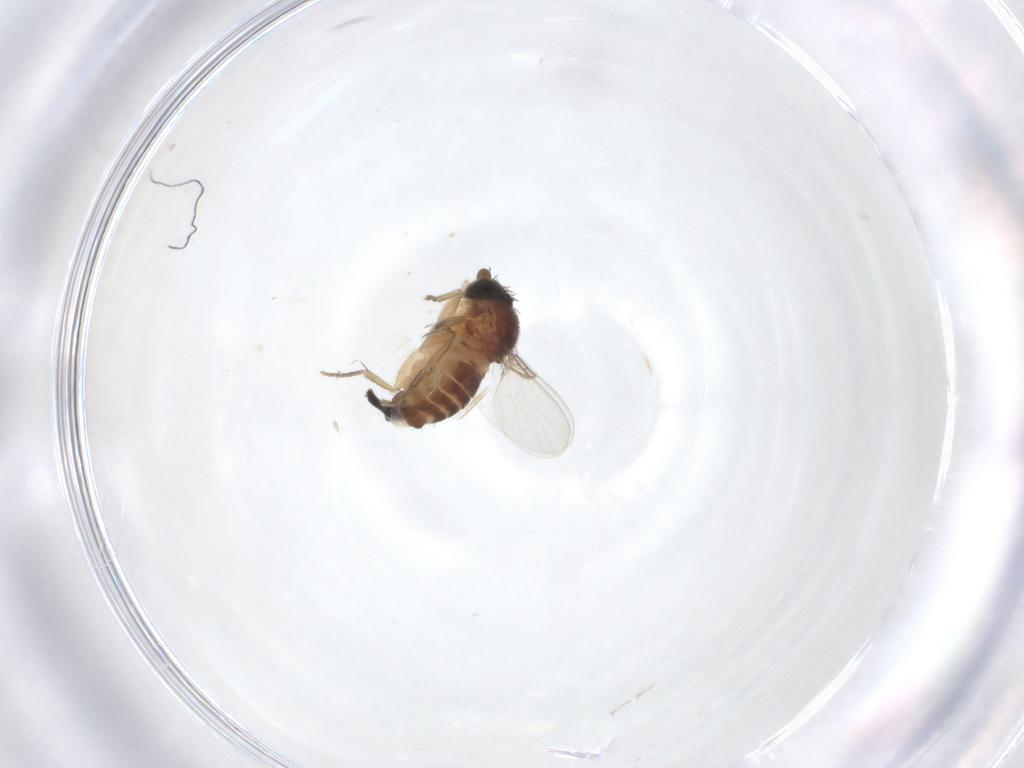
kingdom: Animalia
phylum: Arthropoda
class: Insecta
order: Diptera
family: Phoridae
